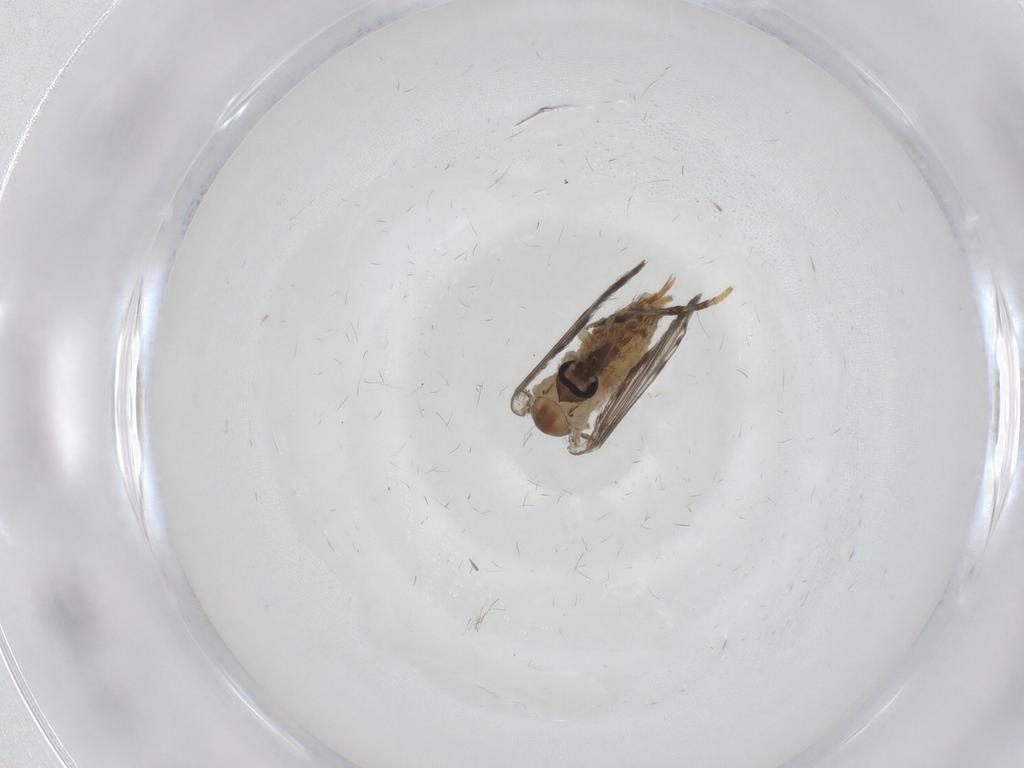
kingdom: Animalia
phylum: Arthropoda
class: Insecta
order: Diptera
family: Psychodidae
